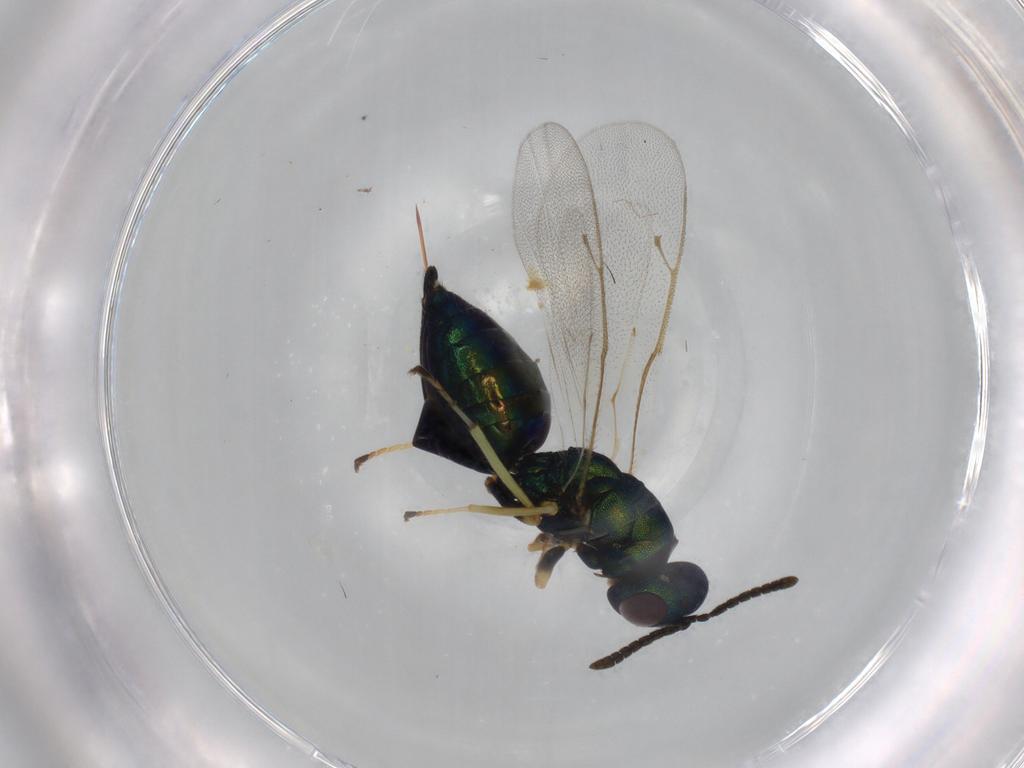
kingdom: Animalia
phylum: Arthropoda
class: Insecta
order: Hymenoptera
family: Pteromalidae
